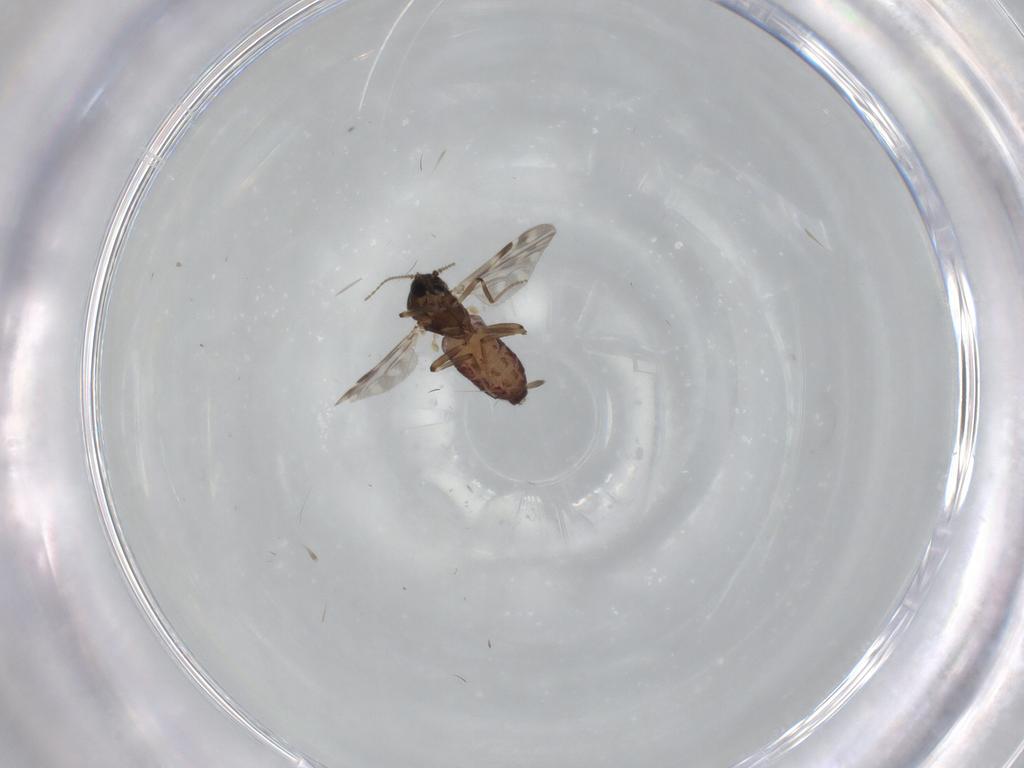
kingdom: Animalia
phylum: Arthropoda
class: Insecta
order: Diptera
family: Ceratopogonidae
